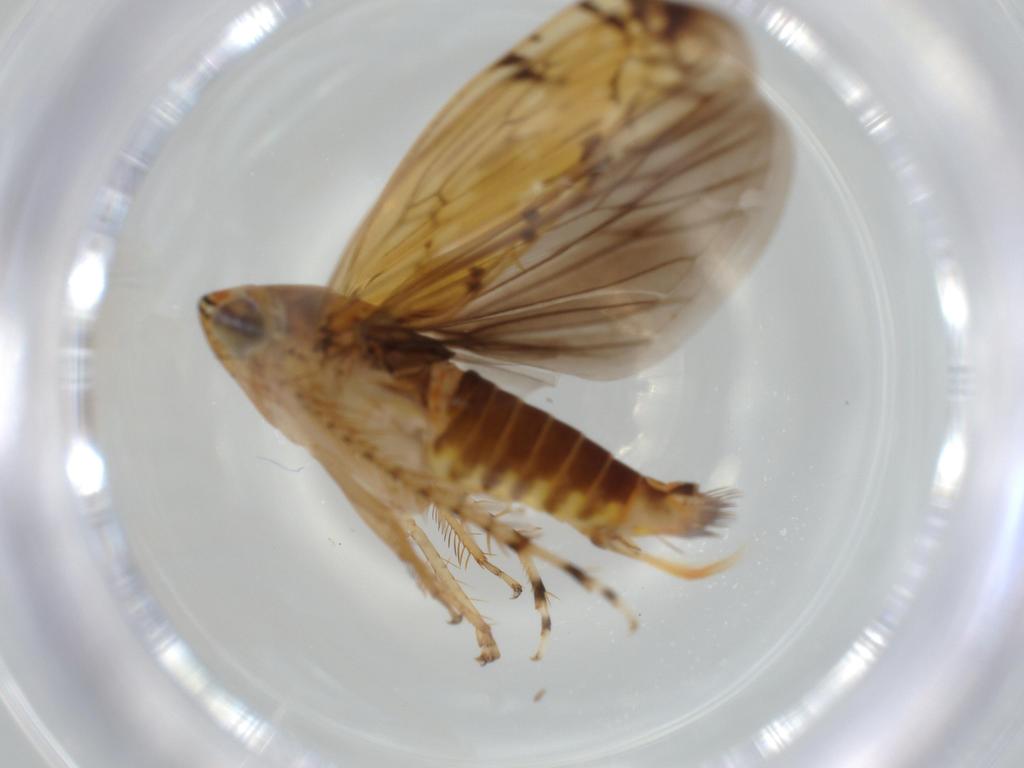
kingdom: Animalia
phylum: Arthropoda
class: Insecta
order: Hemiptera
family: Cicadellidae
